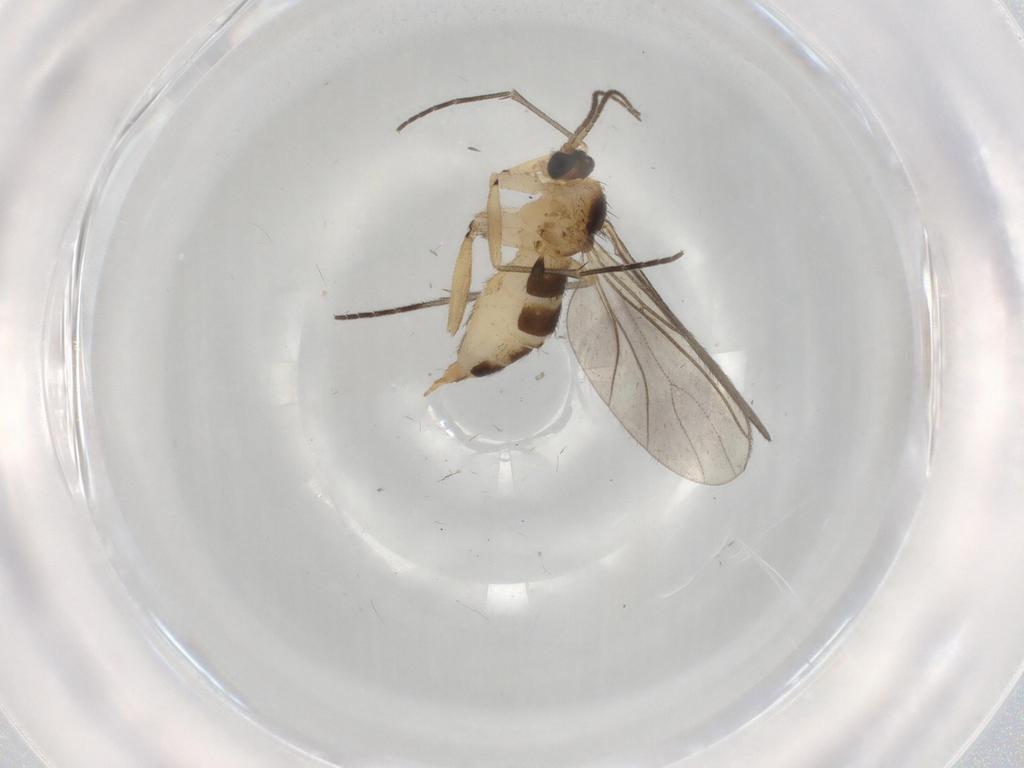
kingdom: Animalia
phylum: Arthropoda
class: Insecta
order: Diptera
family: Sciaridae
